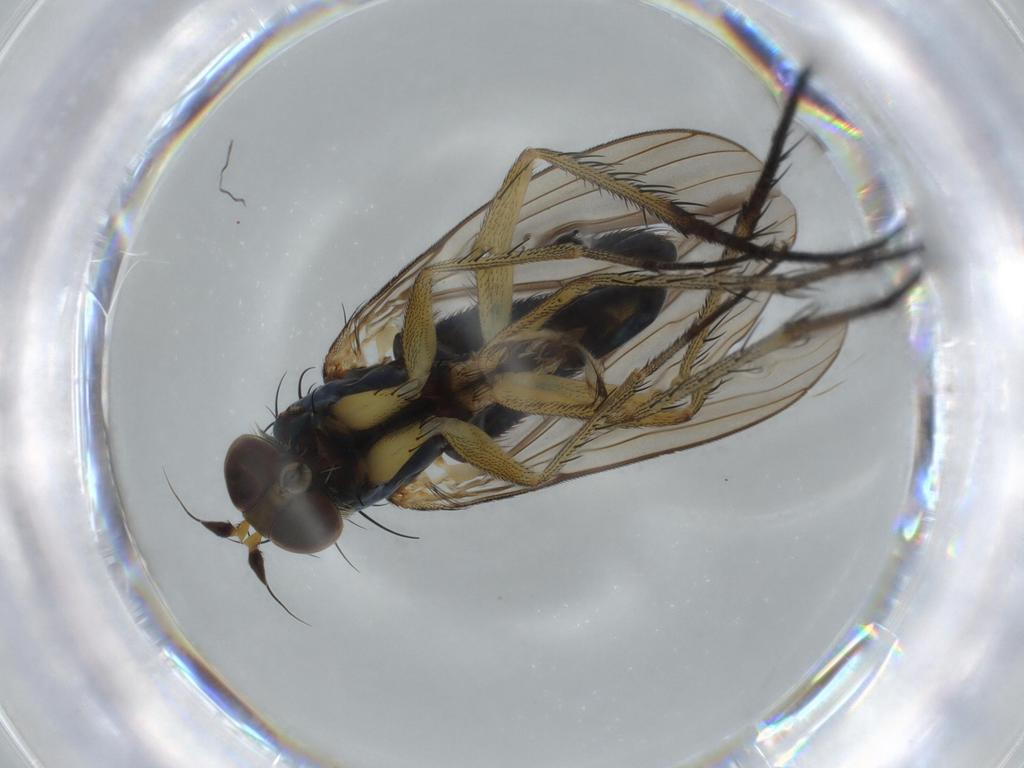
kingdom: Animalia
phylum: Arthropoda
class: Insecta
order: Diptera
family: Dolichopodidae
